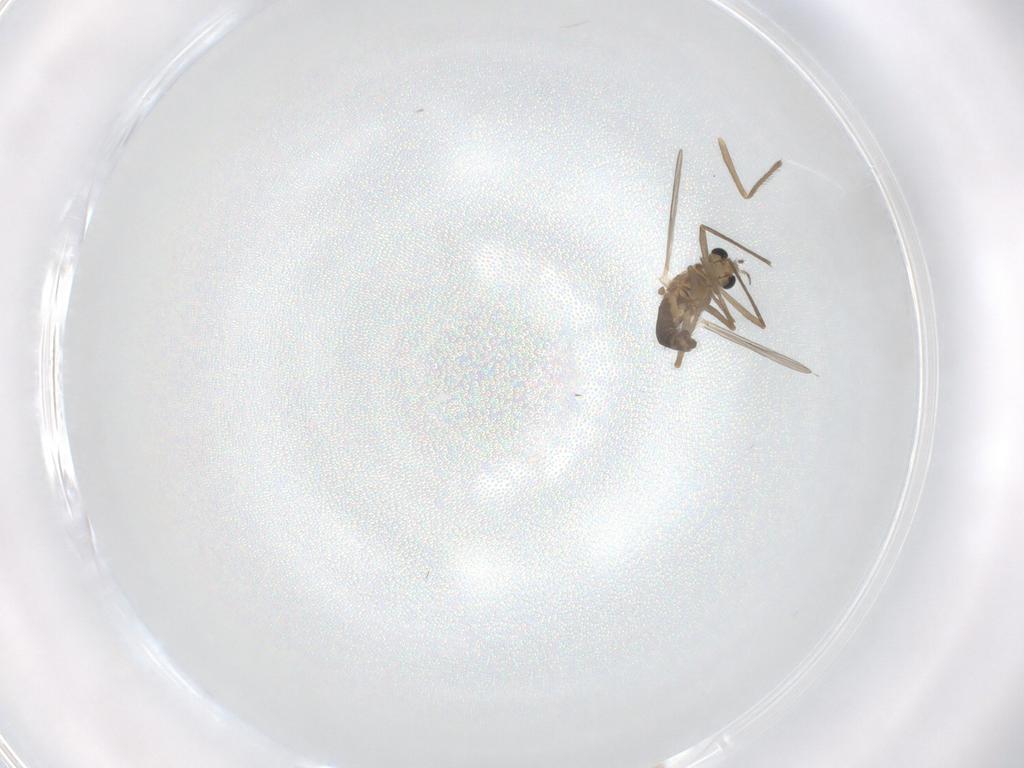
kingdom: Animalia
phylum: Arthropoda
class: Insecta
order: Diptera
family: Chironomidae
